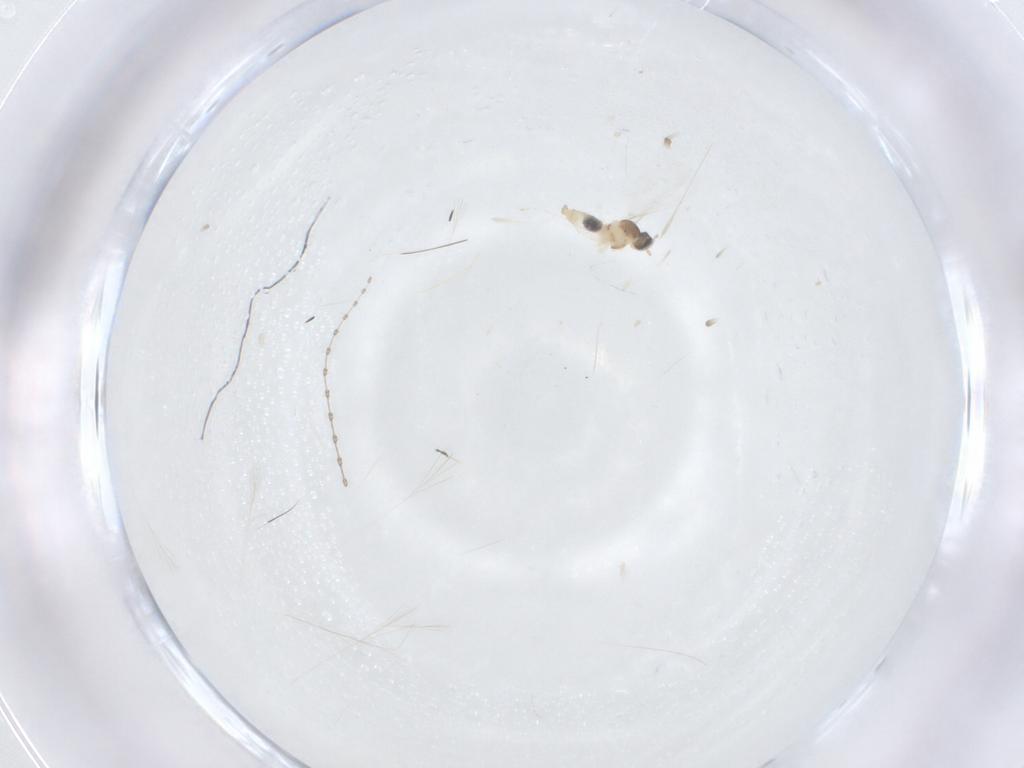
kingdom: Animalia
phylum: Arthropoda
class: Insecta
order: Diptera
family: Cecidomyiidae
